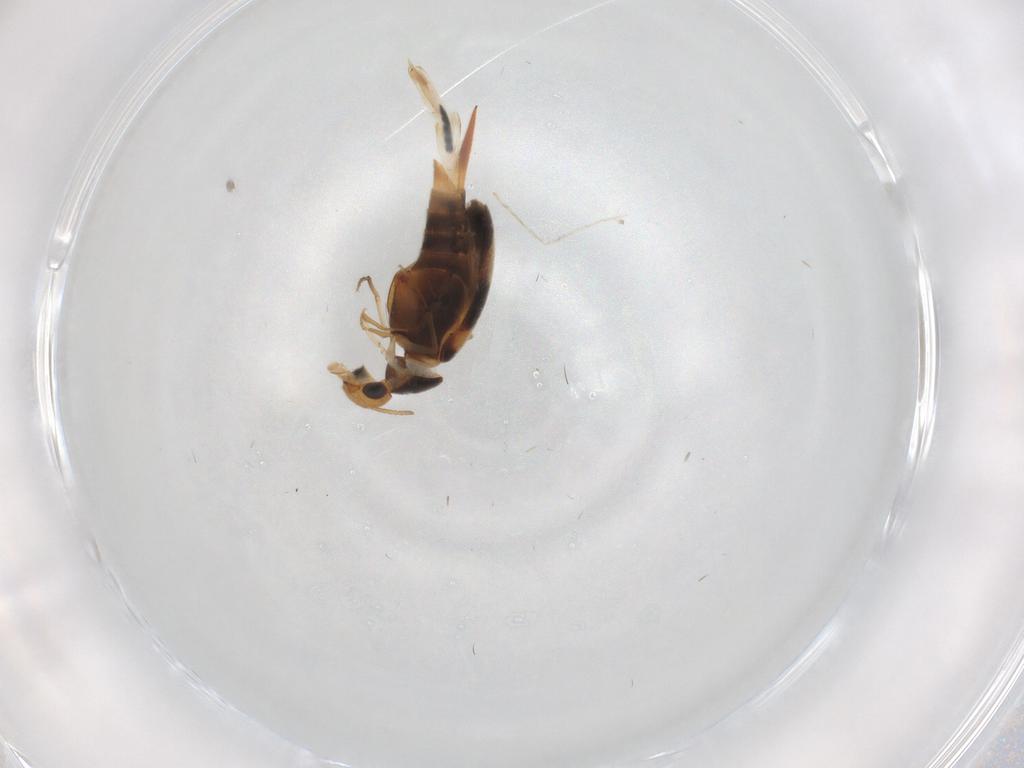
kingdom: Animalia
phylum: Arthropoda
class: Insecta
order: Coleoptera
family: Mordellidae
